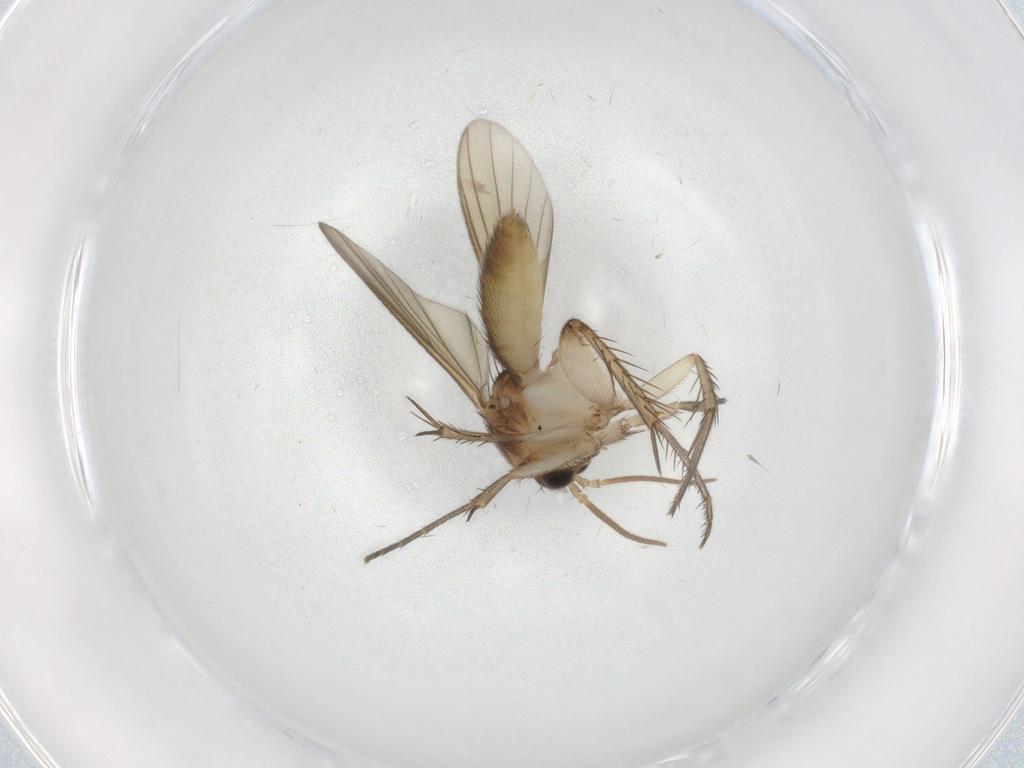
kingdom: Animalia
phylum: Arthropoda
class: Insecta
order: Diptera
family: Mycetophilidae
